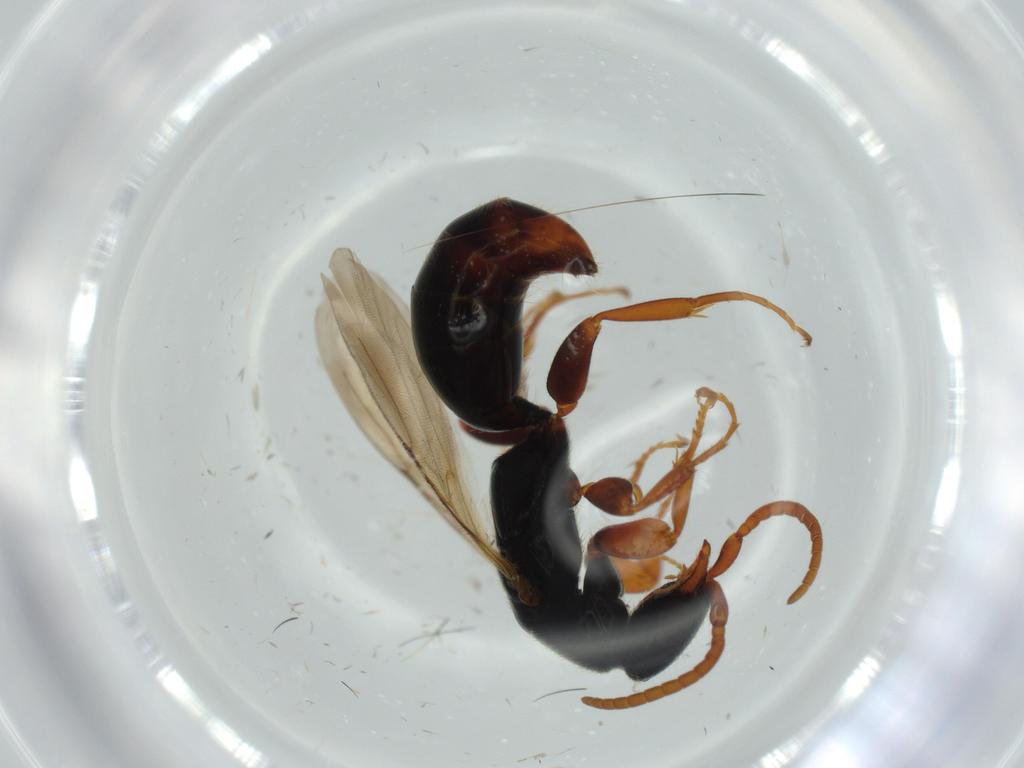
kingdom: Animalia
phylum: Arthropoda
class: Insecta
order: Hymenoptera
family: Bethylidae
